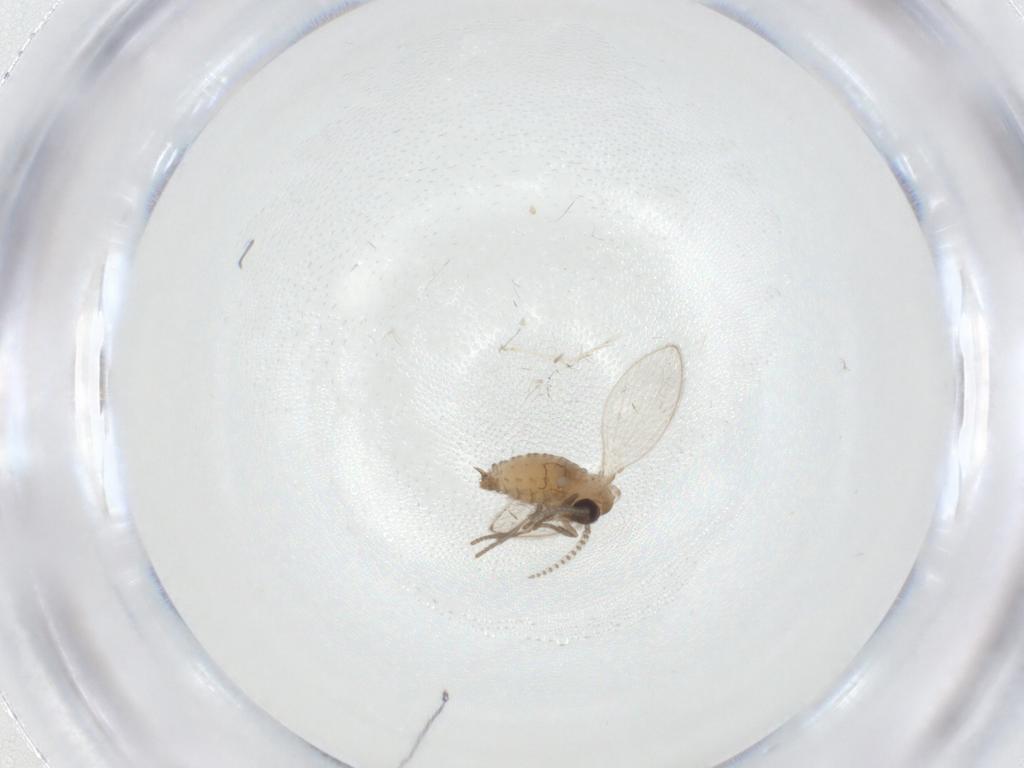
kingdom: Animalia
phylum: Arthropoda
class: Insecta
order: Diptera
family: Psychodidae
